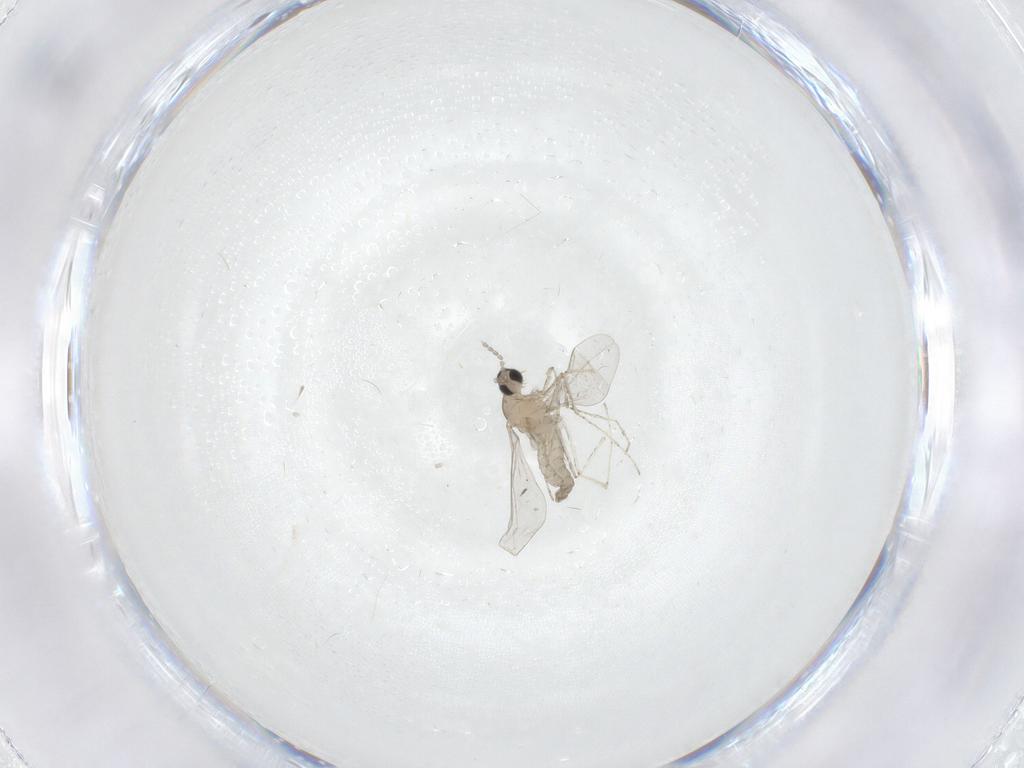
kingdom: Animalia
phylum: Arthropoda
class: Insecta
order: Diptera
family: Cecidomyiidae
